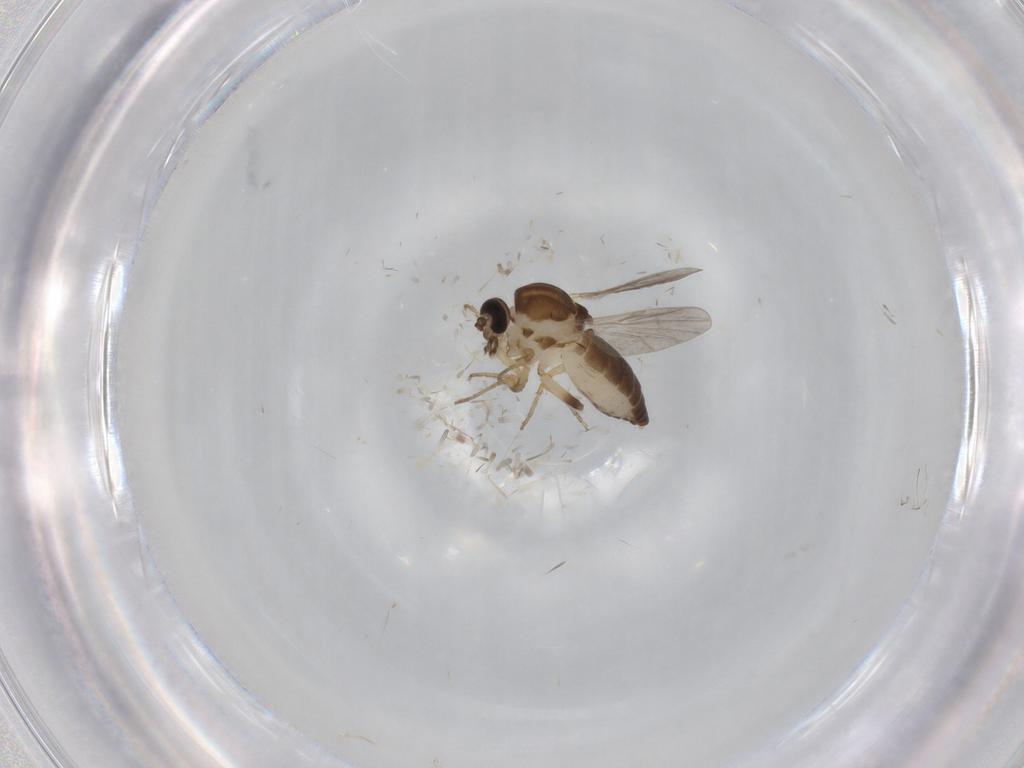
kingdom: Animalia
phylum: Arthropoda
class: Insecta
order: Diptera
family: Ceratopogonidae
